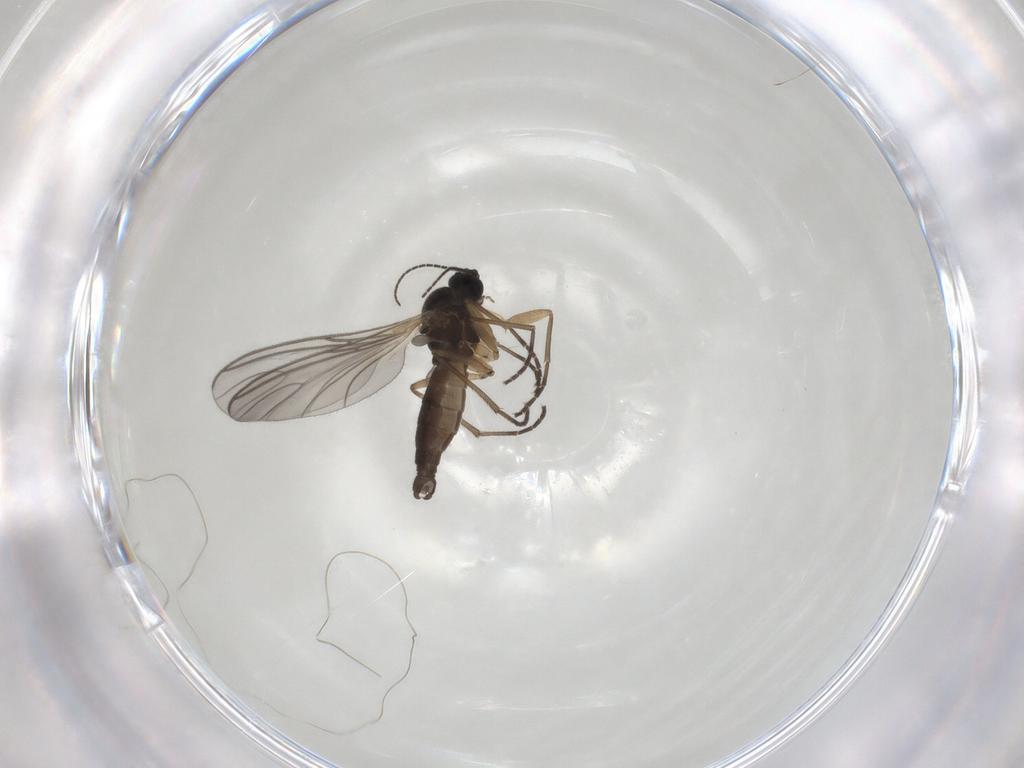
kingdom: Animalia
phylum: Arthropoda
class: Insecta
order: Diptera
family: Sciaridae
